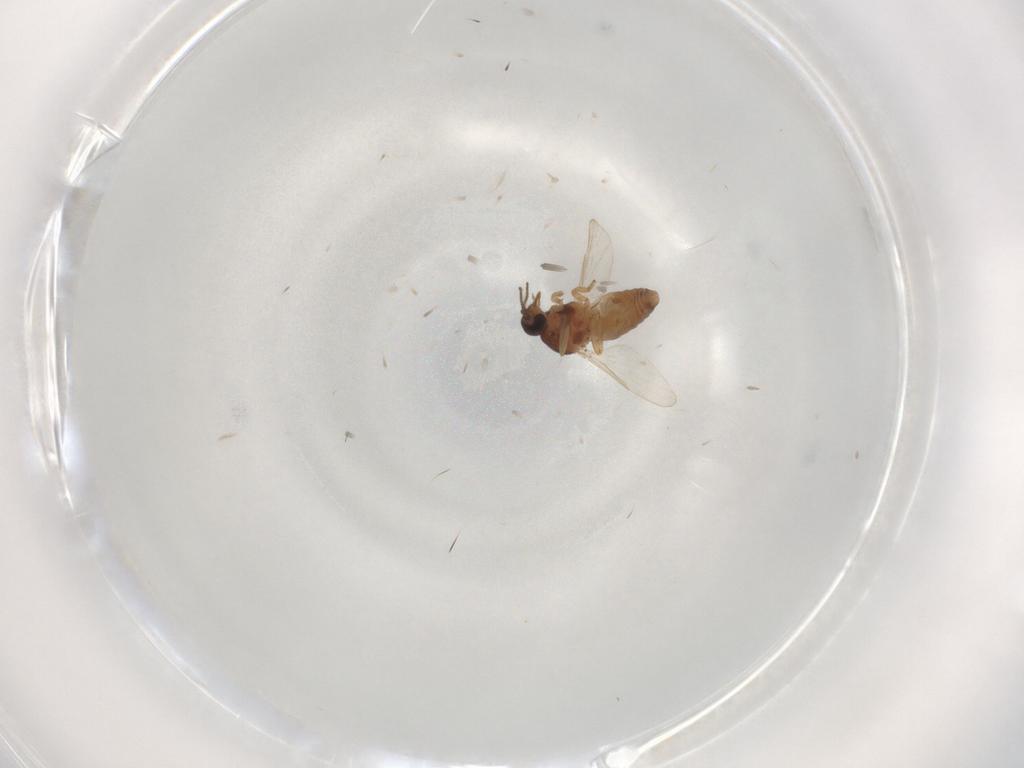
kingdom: Animalia
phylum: Arthropoda
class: Insecta
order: Diptera
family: Ceratopogonidae
